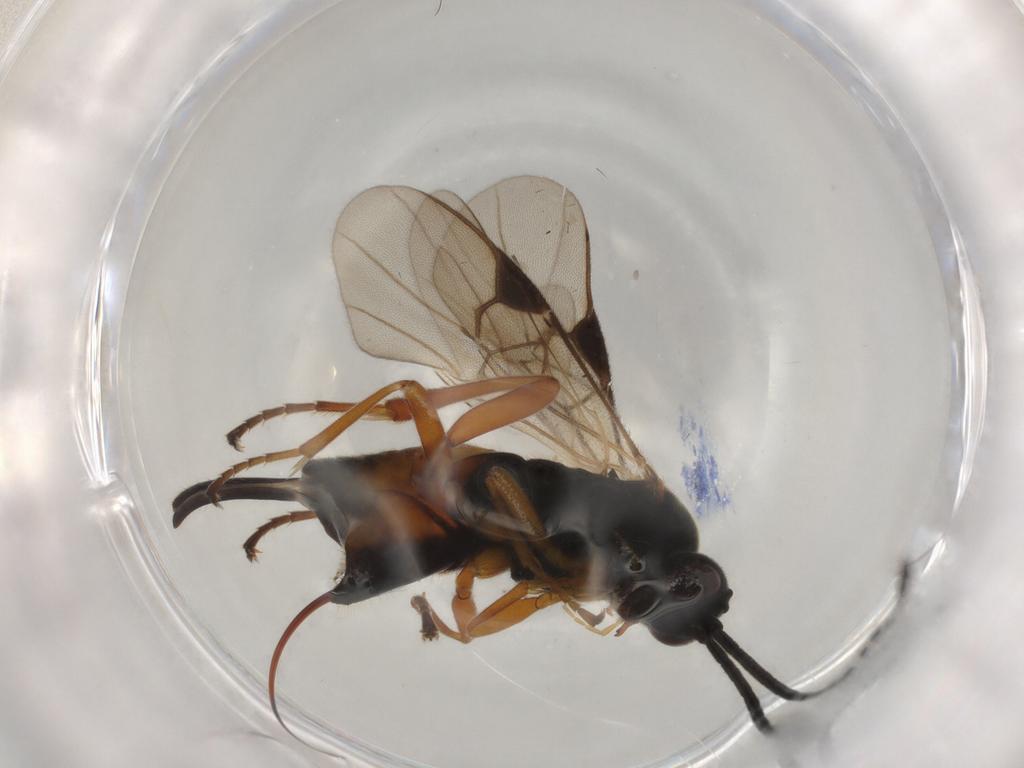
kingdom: Animalia
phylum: Arthropoda
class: Insecta
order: Lepidoptera
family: Tortricidae
